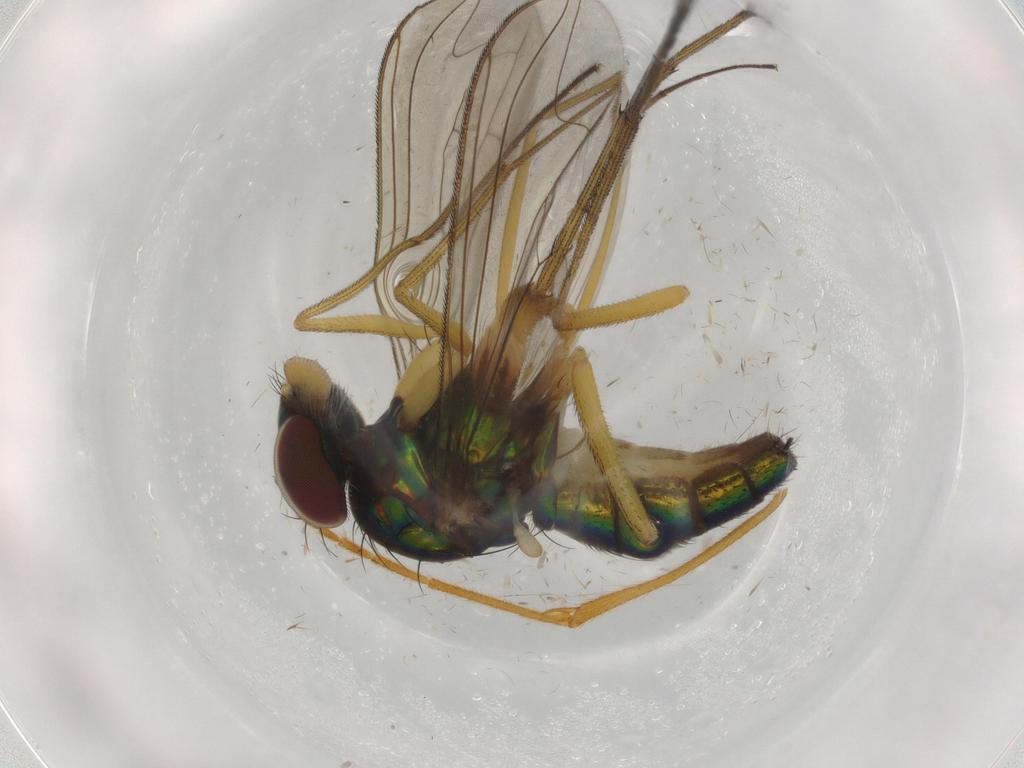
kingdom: Animalia
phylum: Arthropoda
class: Insecta
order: Diptera
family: Dolichopodidae
